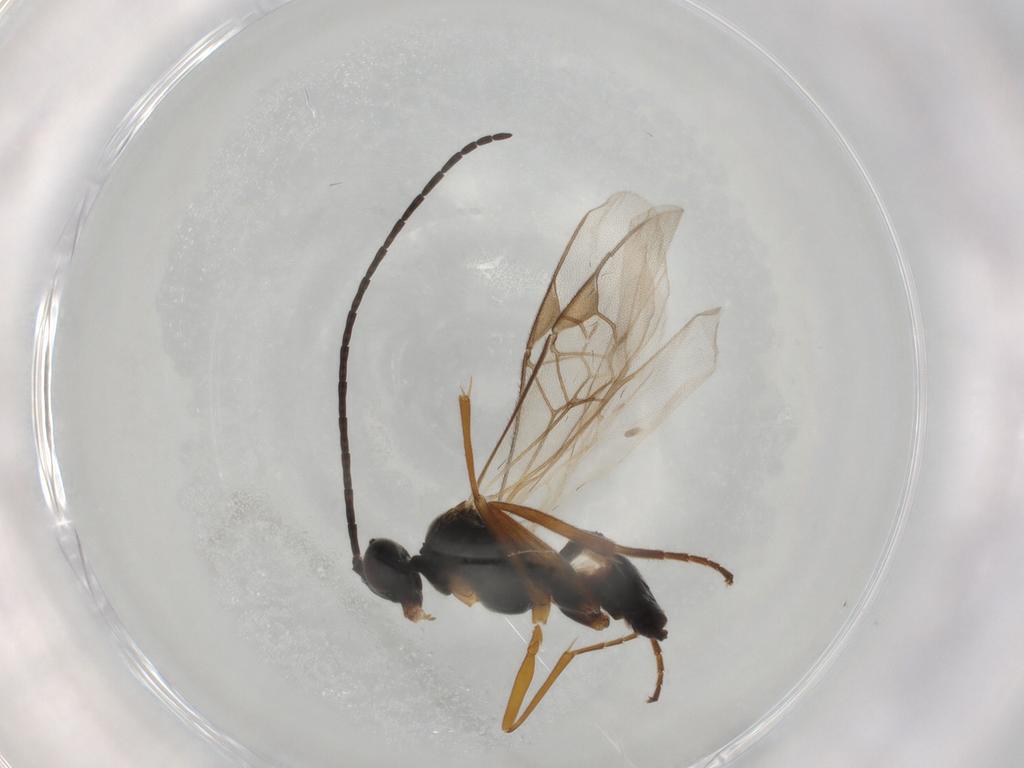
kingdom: Animalia
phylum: Arthropoda
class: Insecta
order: Hymenoptera
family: Braconidae
